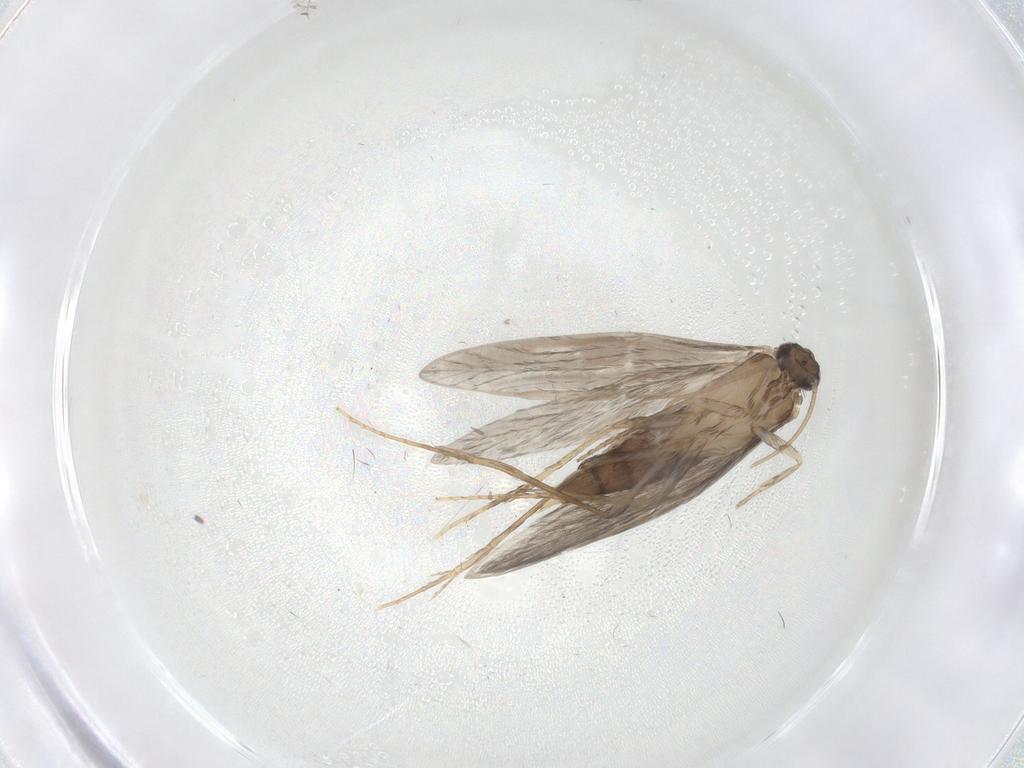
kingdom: Animalia
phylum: Arthropoda
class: Insecta
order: Trichoptera
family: Hydroptilidae
